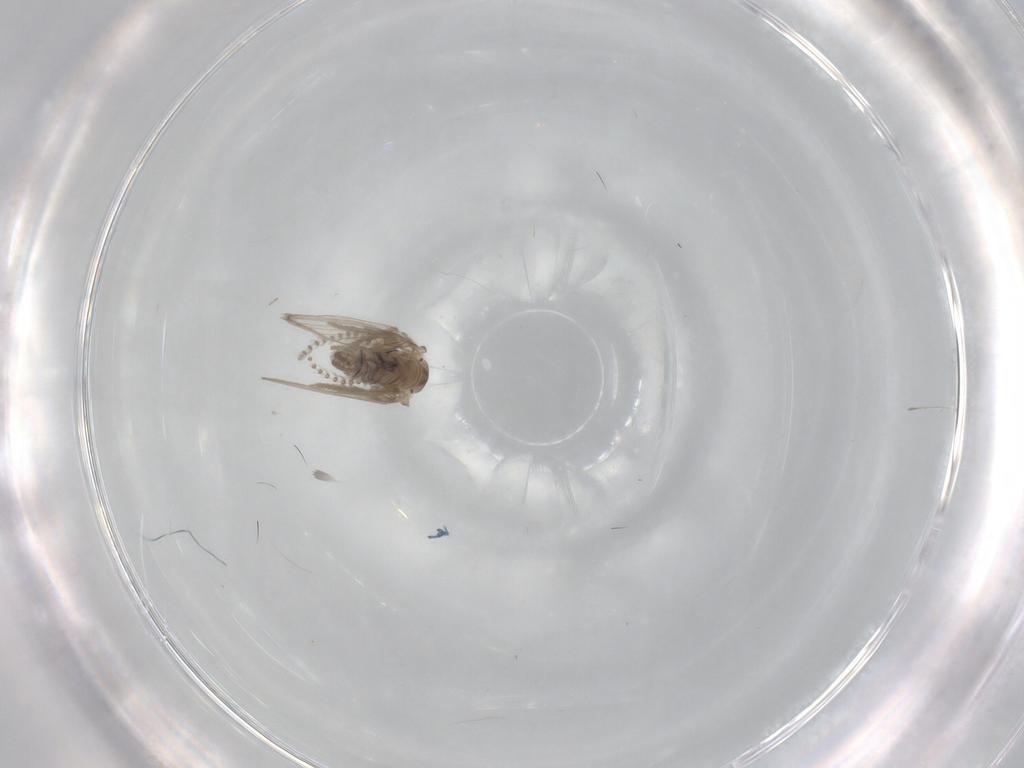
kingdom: Animalia
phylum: Arthropoda
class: Insecta
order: Diptera
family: Psychodidae
